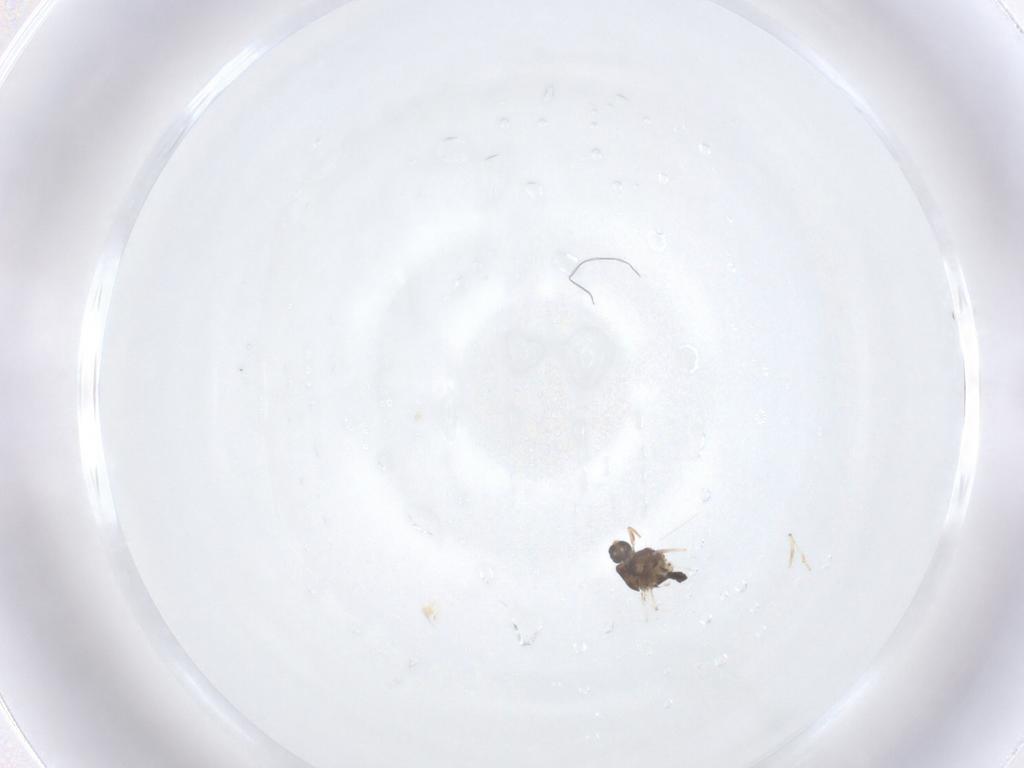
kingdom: Animalia
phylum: Arthropoda
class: Insecta
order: Diptera
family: Chironomidae
